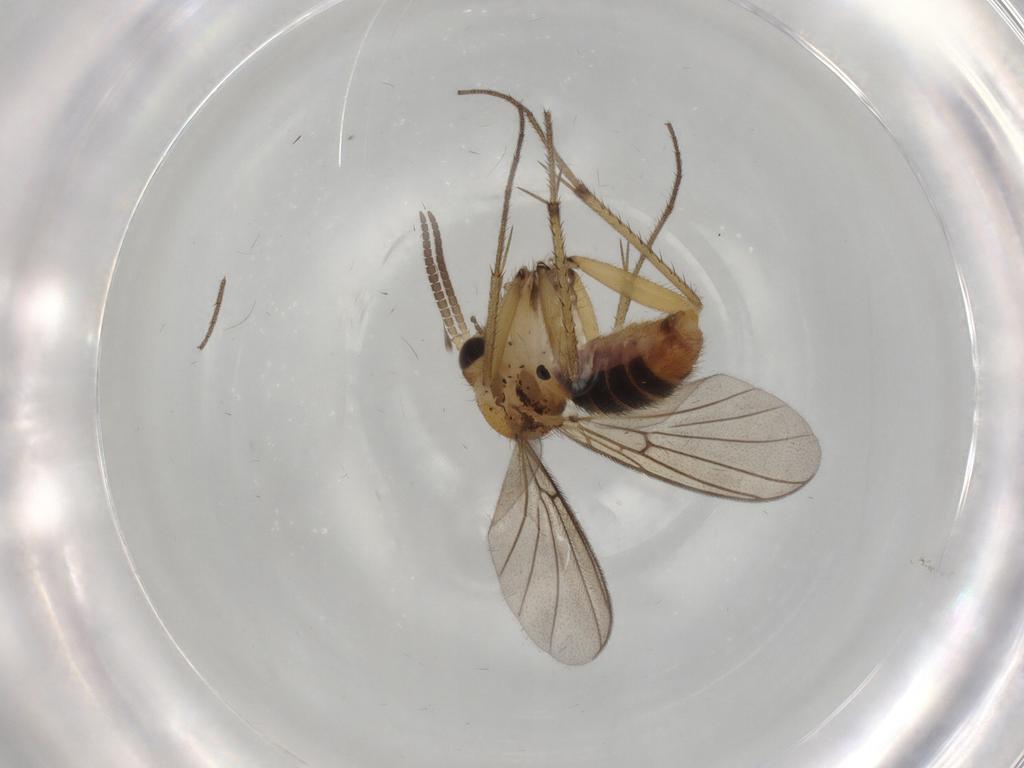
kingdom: Animalia
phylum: Arthropoda
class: Insecta
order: Diptera
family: Mycetophilidae
